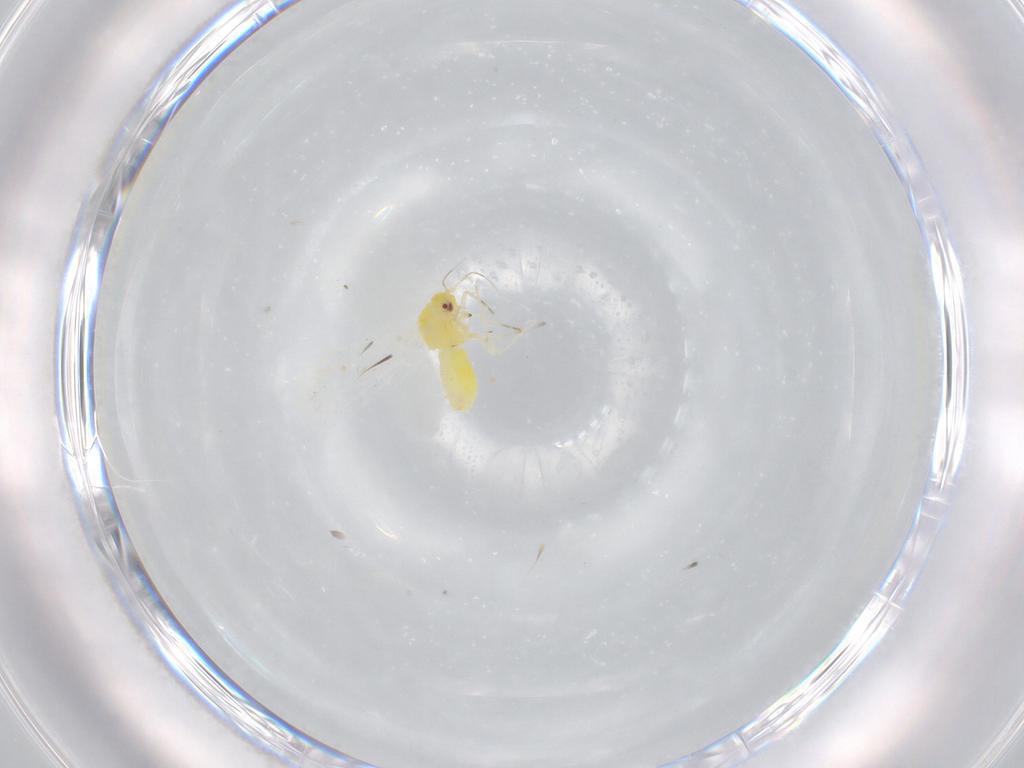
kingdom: Animalia
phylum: Arthropoda
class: Insecta
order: Hemiptera
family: Aleyrodidae
